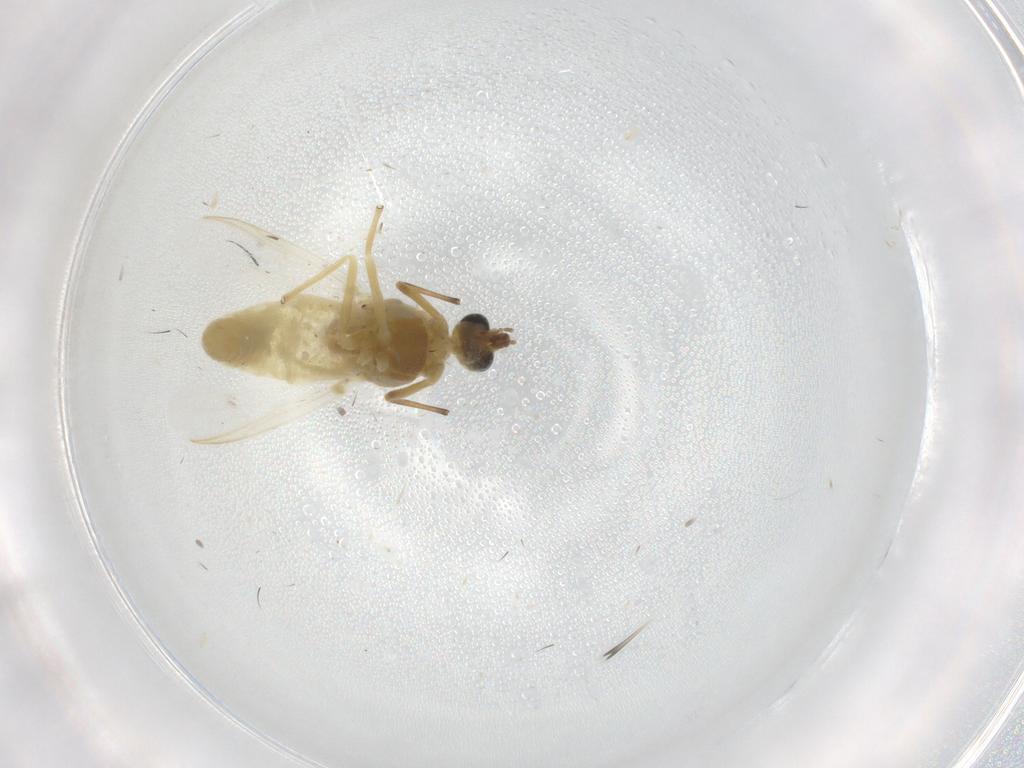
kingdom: Animalia
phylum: Arthropoda
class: Insecta
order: Diptera
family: Chironomidae
